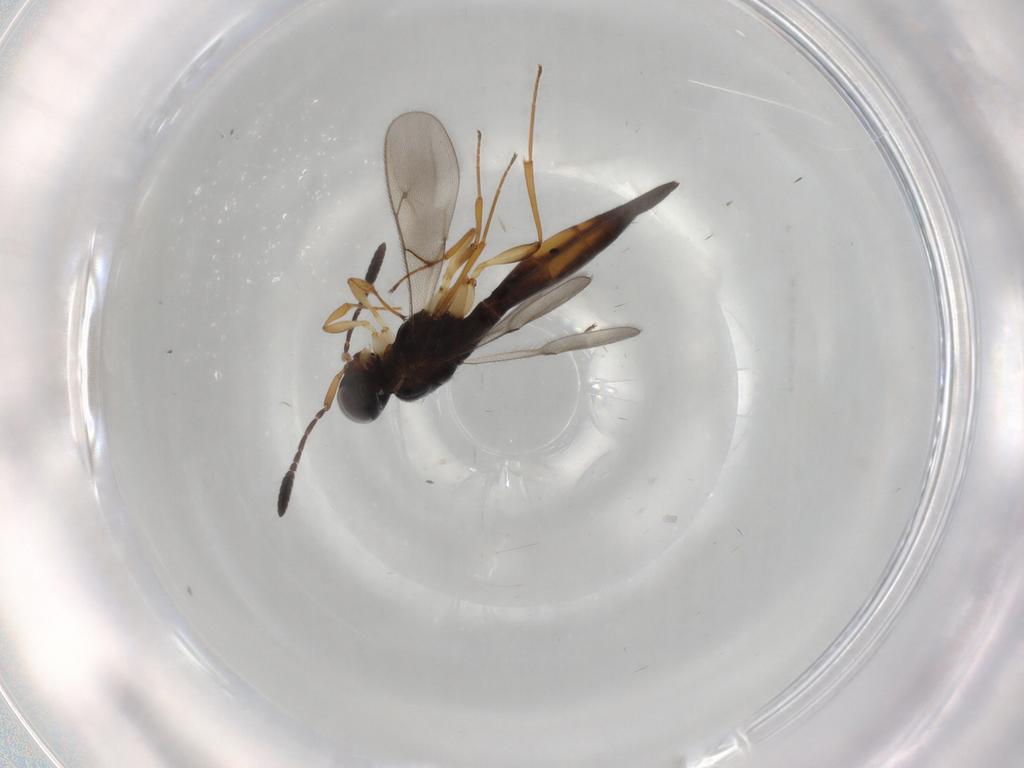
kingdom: Animalia
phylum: Arthropoda
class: Insecta
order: Hymenoptera
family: Trichogrammatidae
